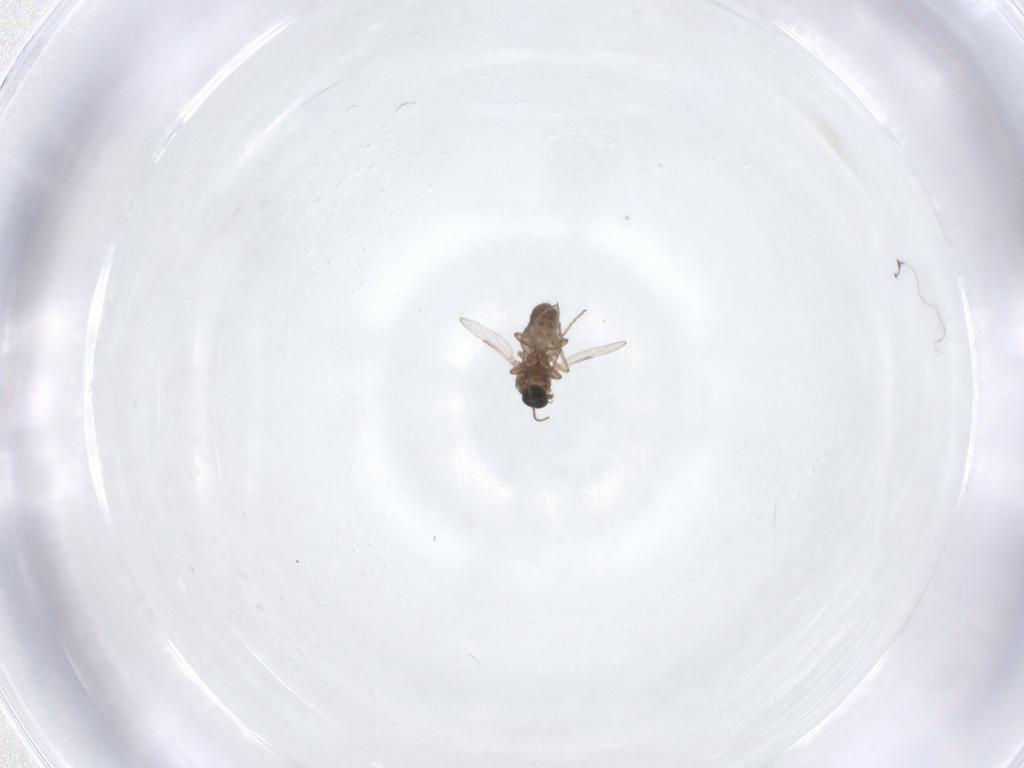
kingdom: Animalia
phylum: Arthropoda
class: Insecta
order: Diptera
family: Ceratopogonidae
